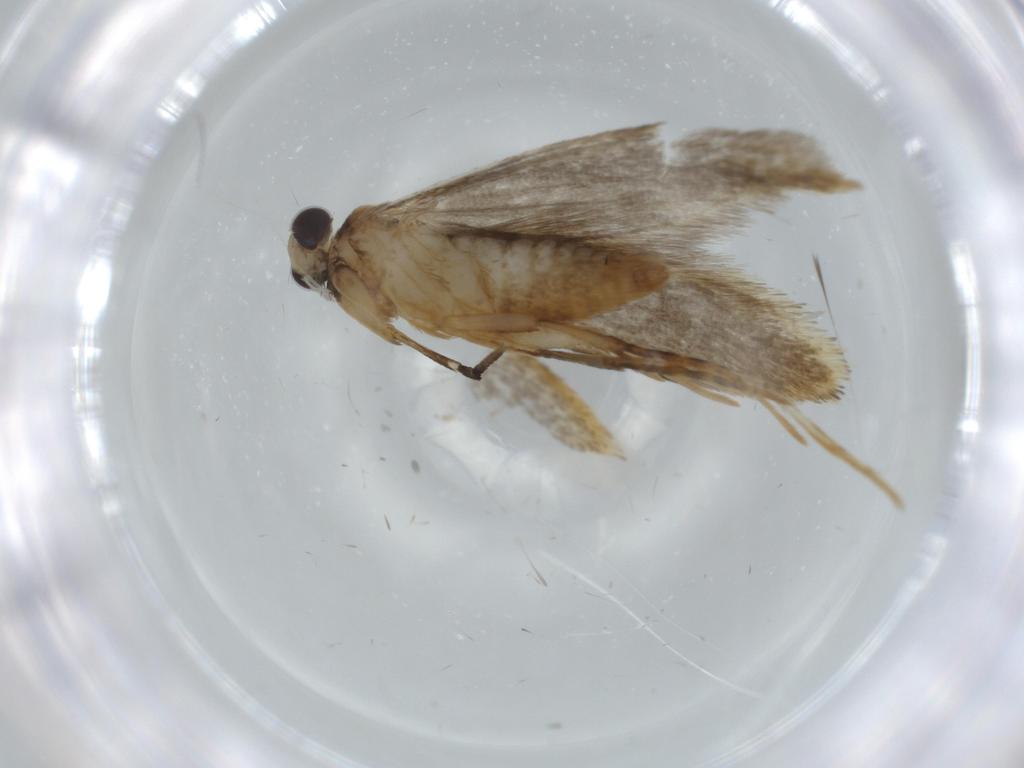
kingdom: Animalia
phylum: Arthropoda
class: Insecta
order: Lepidoptera
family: Tineidae
